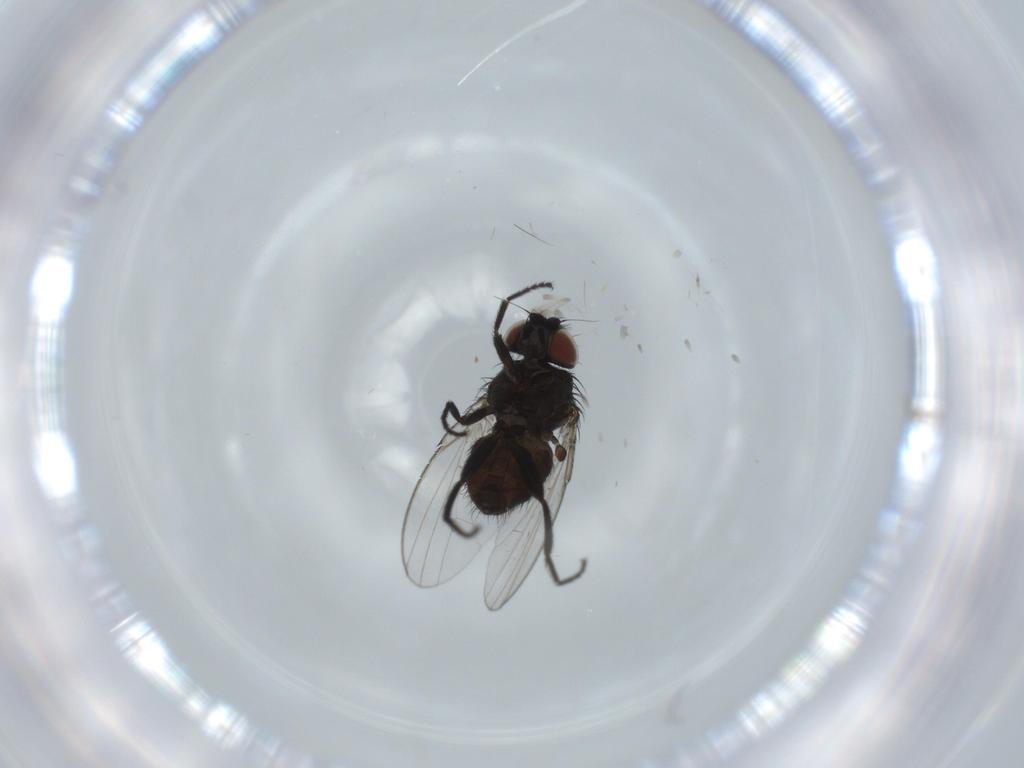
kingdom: Animalia
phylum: Arthropoda
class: Insecta
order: Diptera
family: Milichiidae
